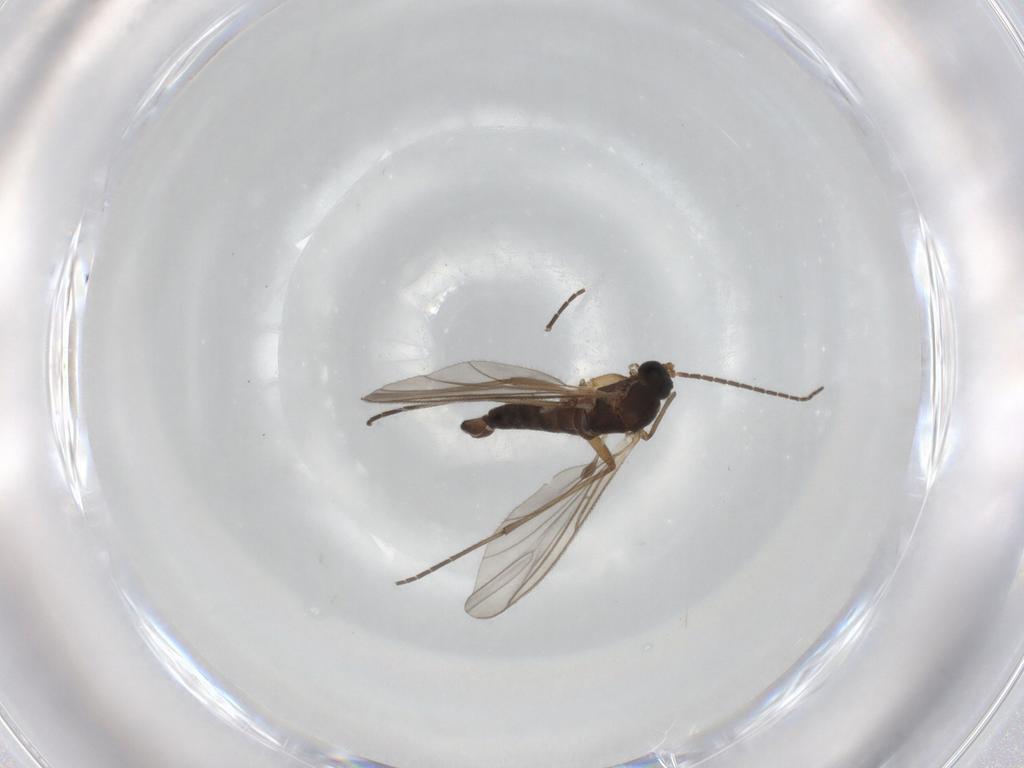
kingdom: Animalia
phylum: Arthropoda
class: Insecta
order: Diptera
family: Sciaridae
